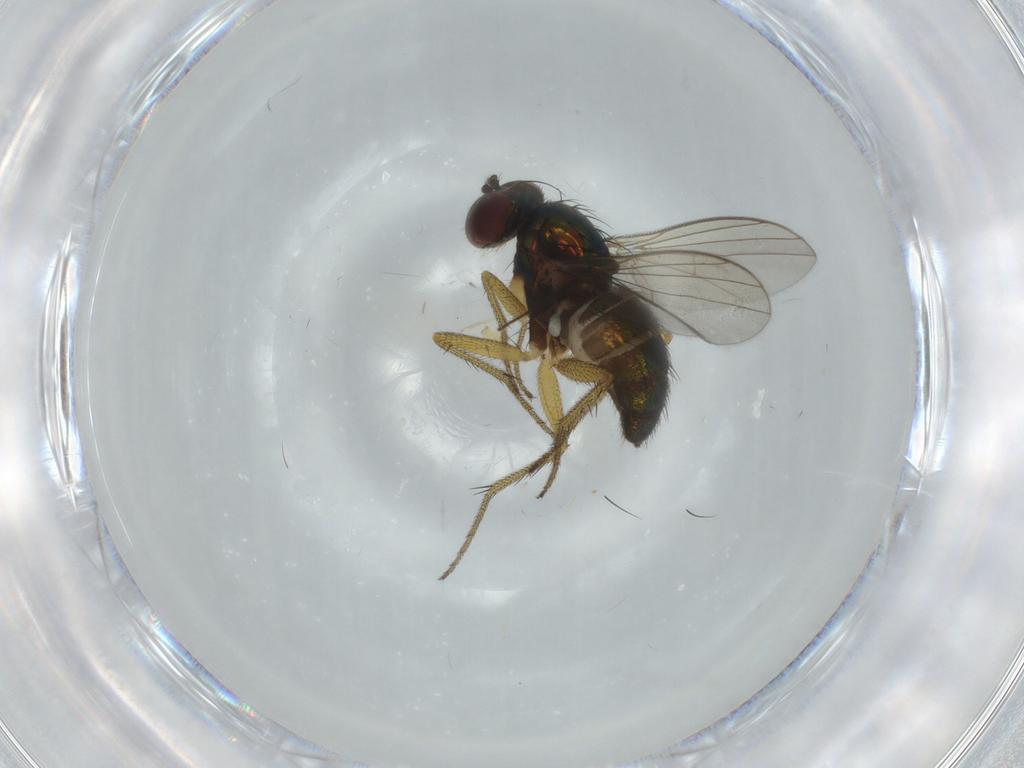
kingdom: Animalia
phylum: Arthropoda
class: Insecta
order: Diptera
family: Dolichopodidae
